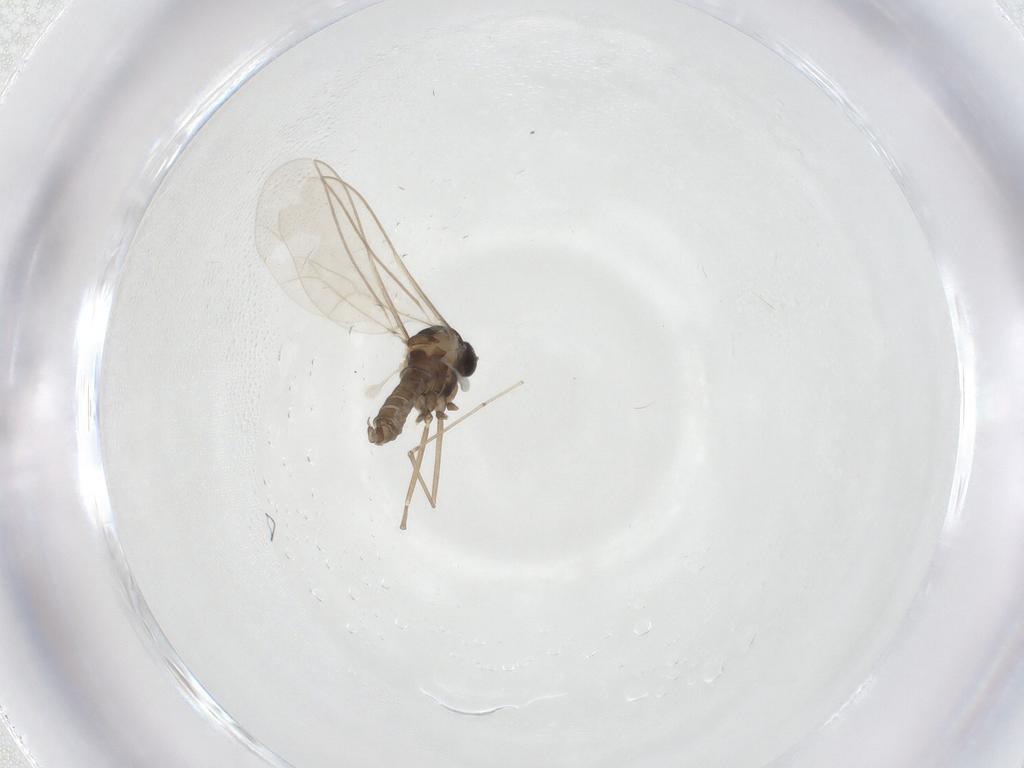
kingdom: Animalia
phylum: Arthropoda
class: Insecta
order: Diptera
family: Cecidomyiidae
